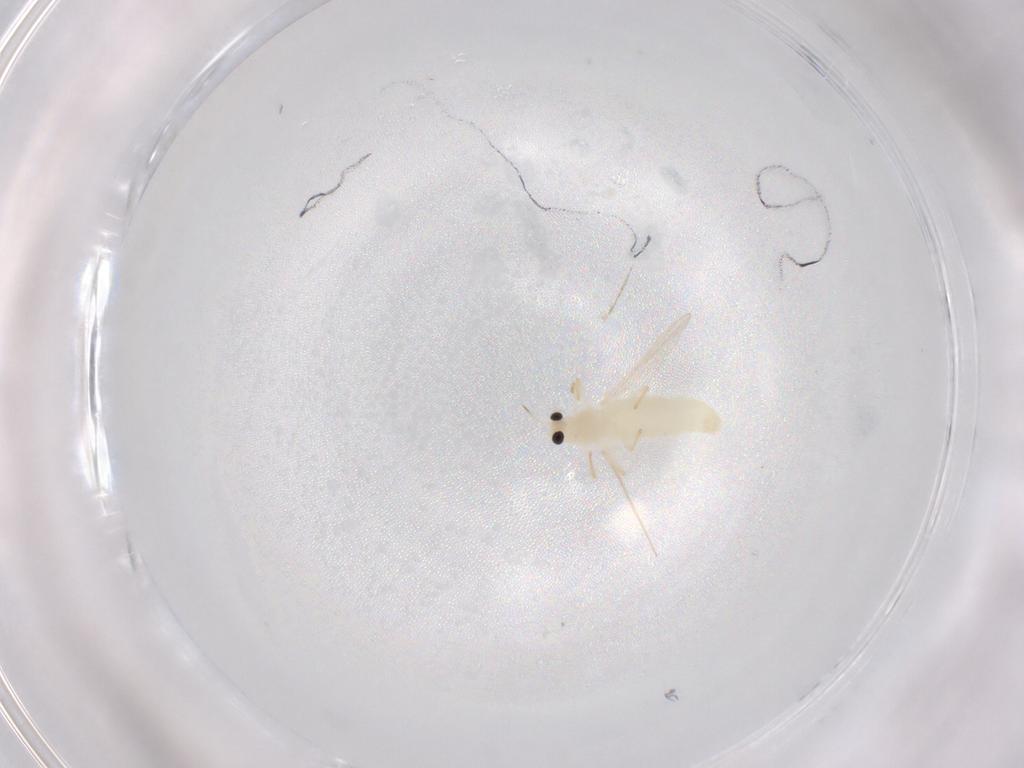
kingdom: Animalia
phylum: Arthropoda
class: Insecta
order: Diptera
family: Chironomidae
